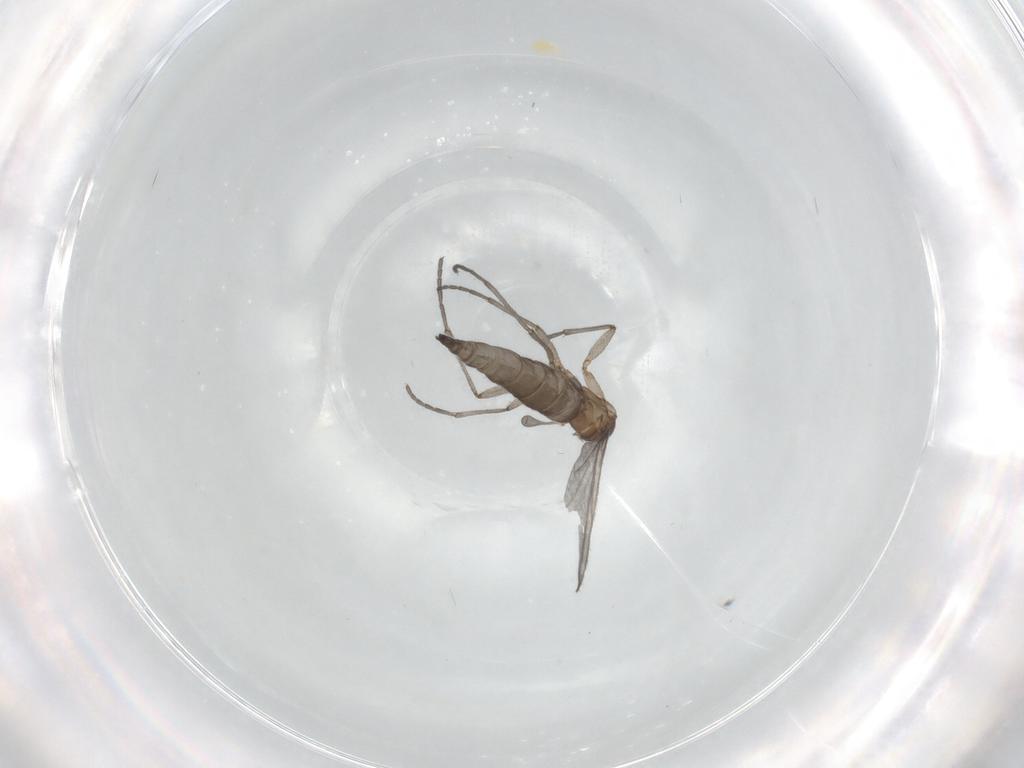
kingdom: Animalia
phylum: Arthropoda
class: Insecta
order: Diptera
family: Sciaridae
